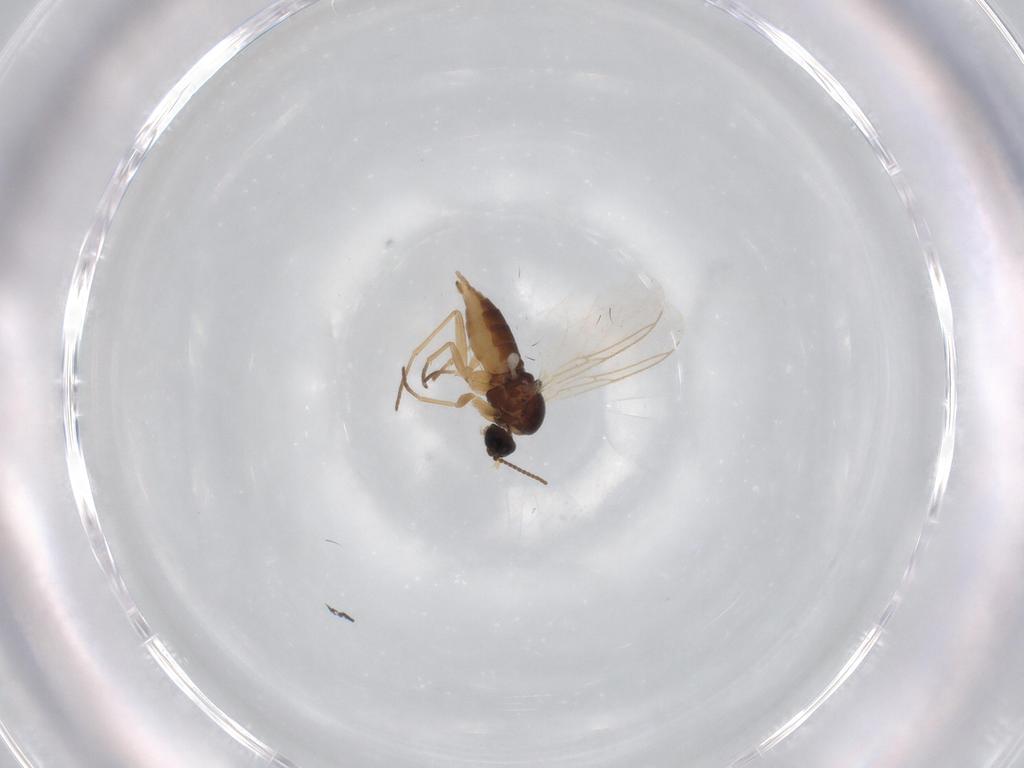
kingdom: Animalia
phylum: Arthropoda
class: Insecta
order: Diptera
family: Sciaridae
